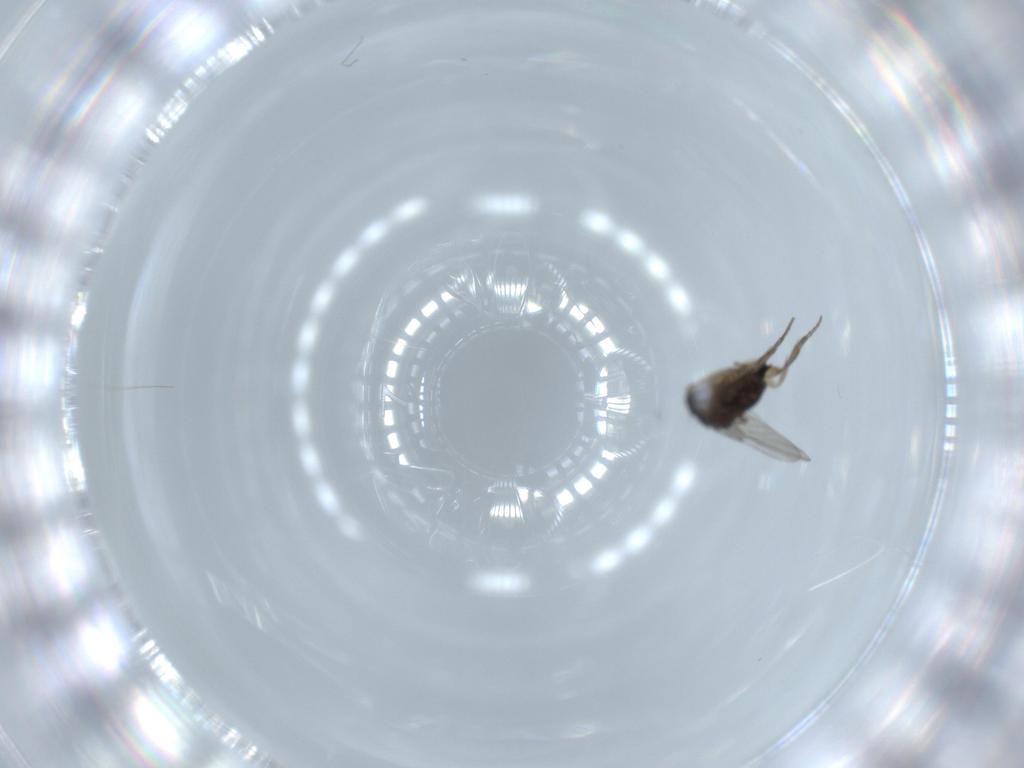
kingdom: Animalia
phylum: Arthropoda
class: Insecta
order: Diptera
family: Phoridae
